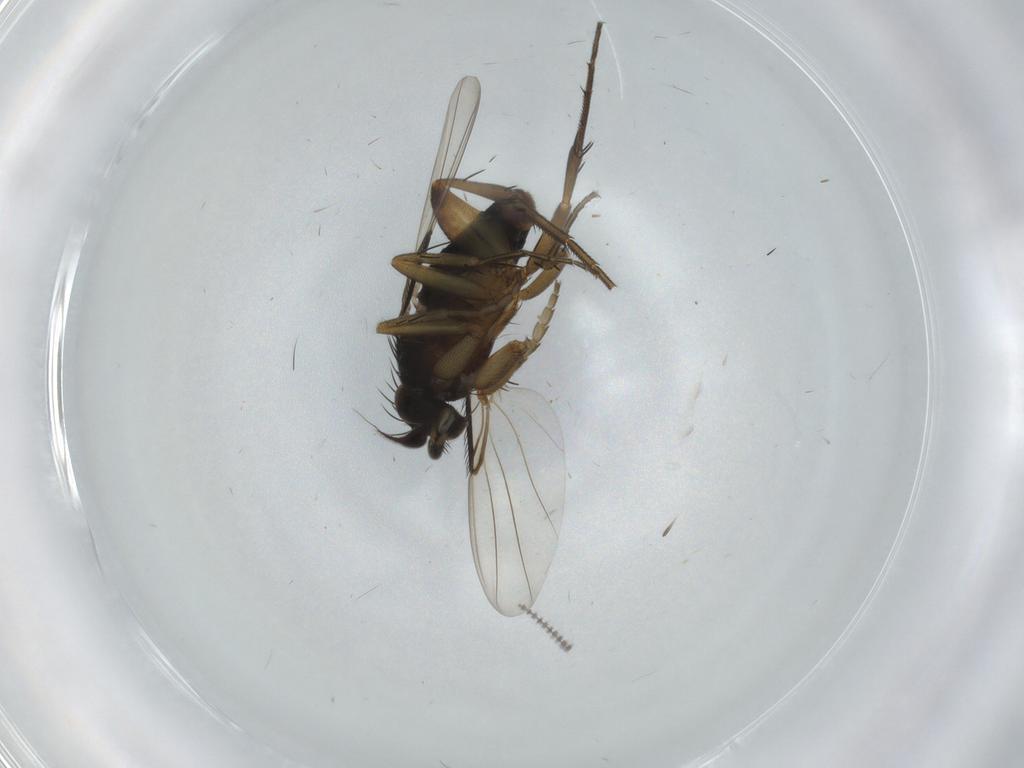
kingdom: Animalia
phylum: Arthropoda
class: Insecta
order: Diptera
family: Phoridae
